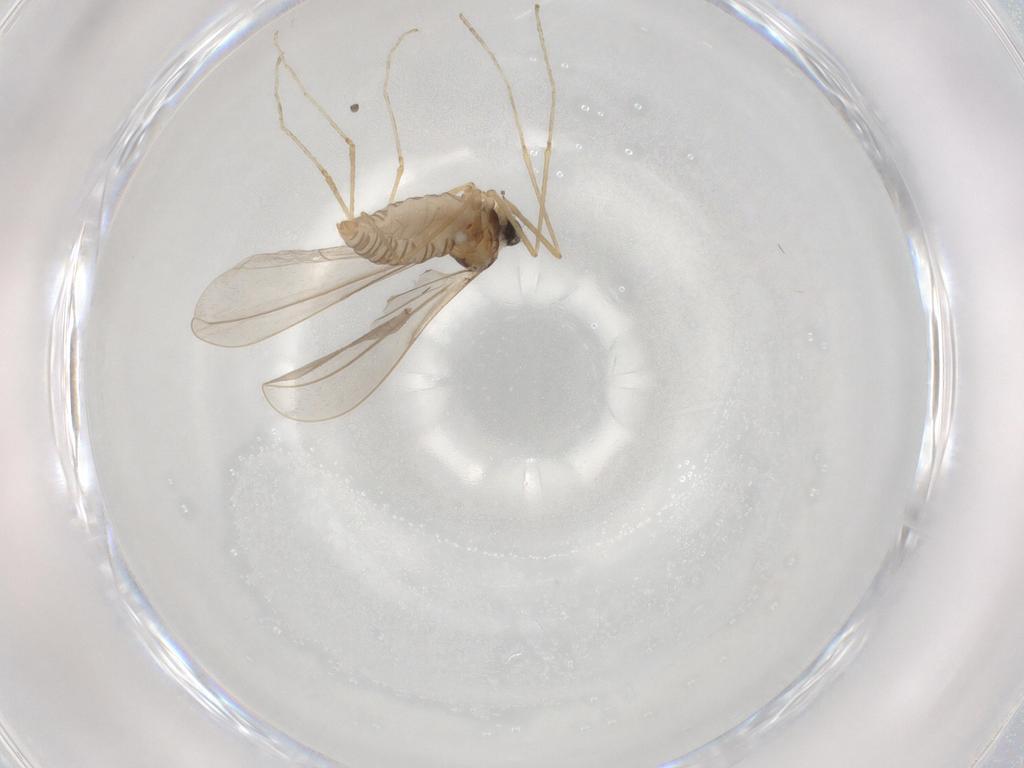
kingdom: Animalia
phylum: Arthropoda
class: Insecta
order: Diptera
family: Cecidomyiidae
